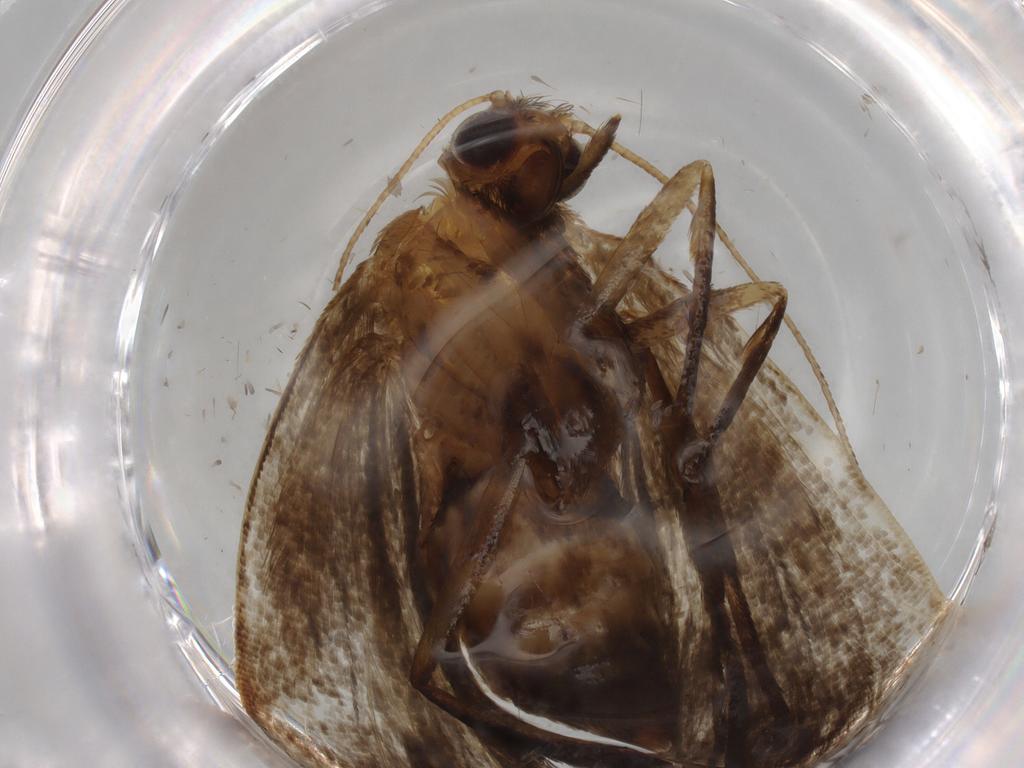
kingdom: Animalia
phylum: Arthropoda
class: Insecta
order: Lepidoptera
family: Erebidae
